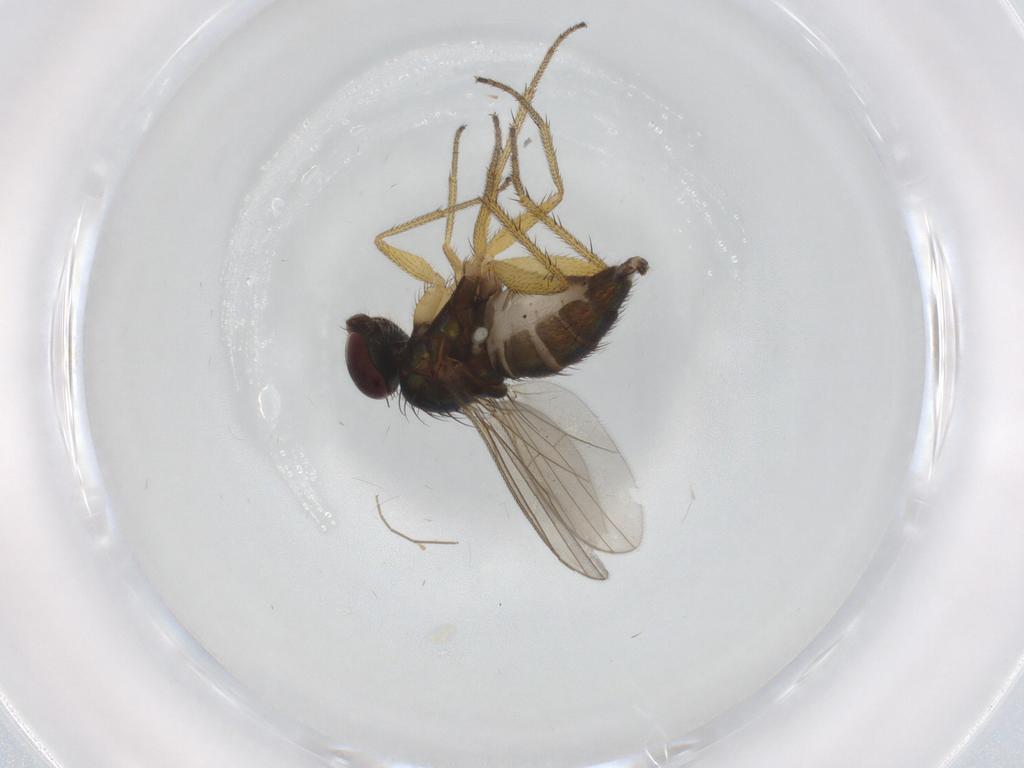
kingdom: Animalia
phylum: Arthropoda
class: Insecta
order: Diptera
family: Dolichopodidae
